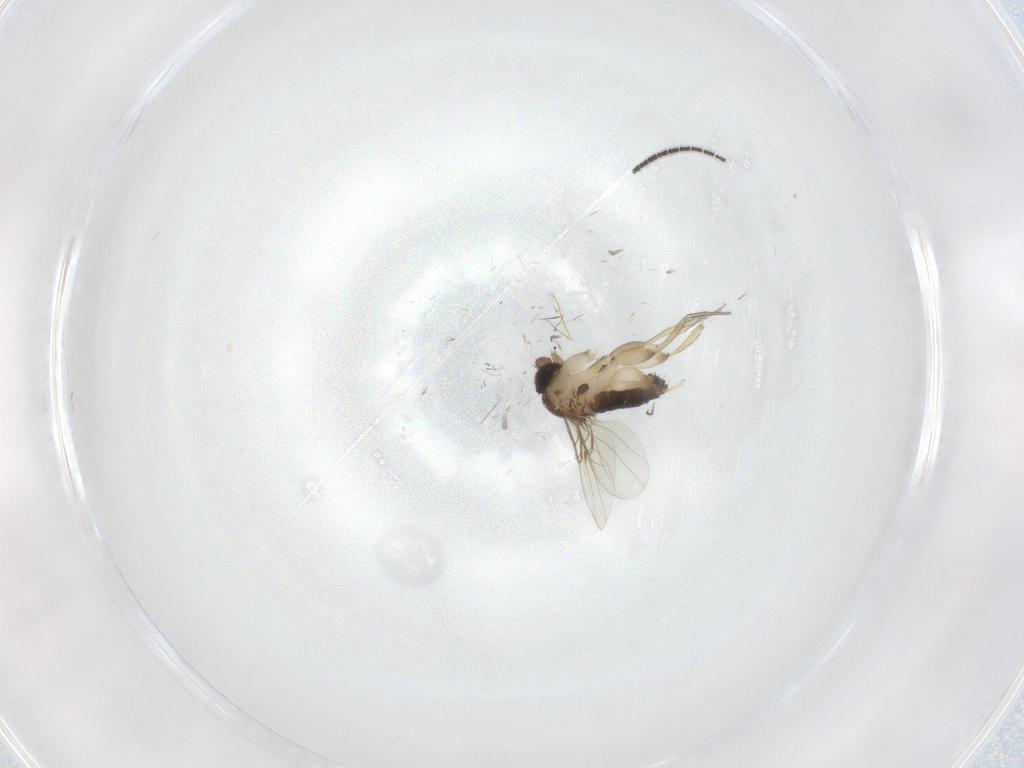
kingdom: Animalia
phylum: Arthropoda
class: Insecta
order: Diptera
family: Phoridae
